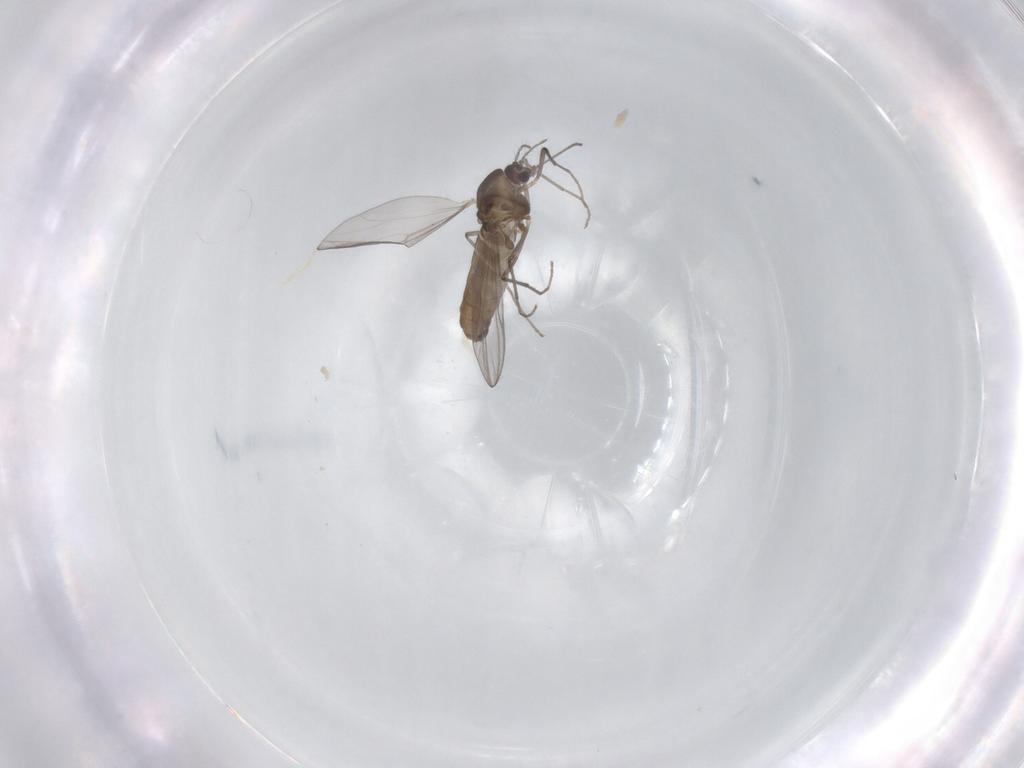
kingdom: Animalia
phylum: Arthropoda
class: Insecta
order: Diptera
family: Chironomidae
